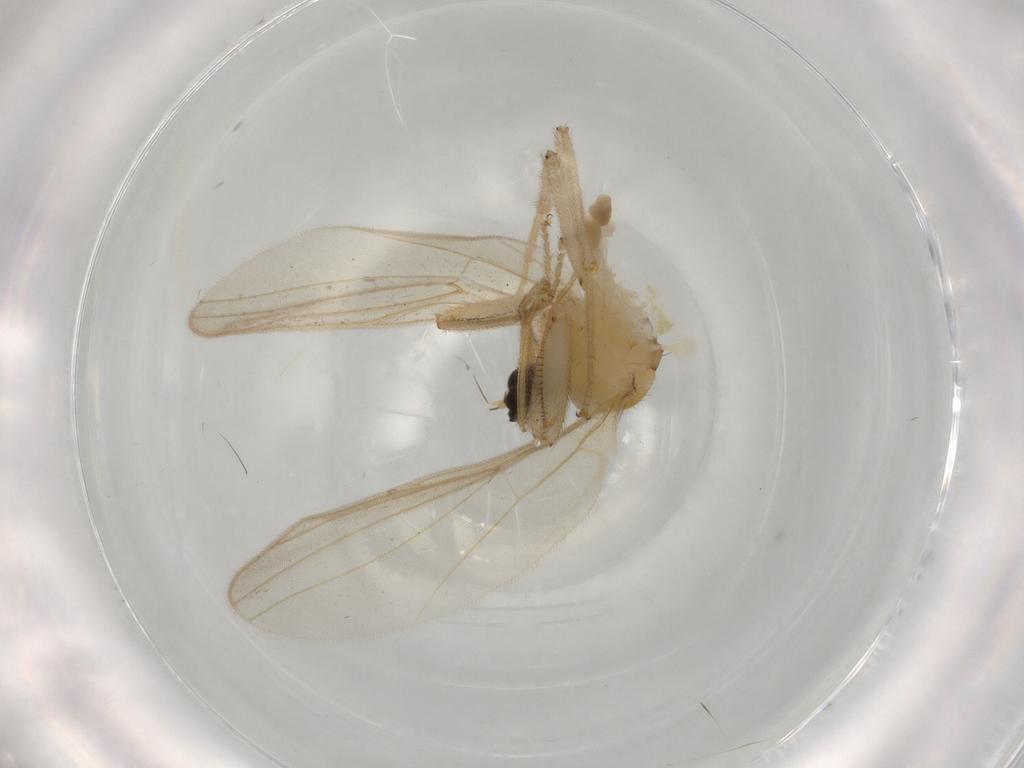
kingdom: Animalia
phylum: Arthropoda
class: Insecta
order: Diptera
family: Hybotidae
